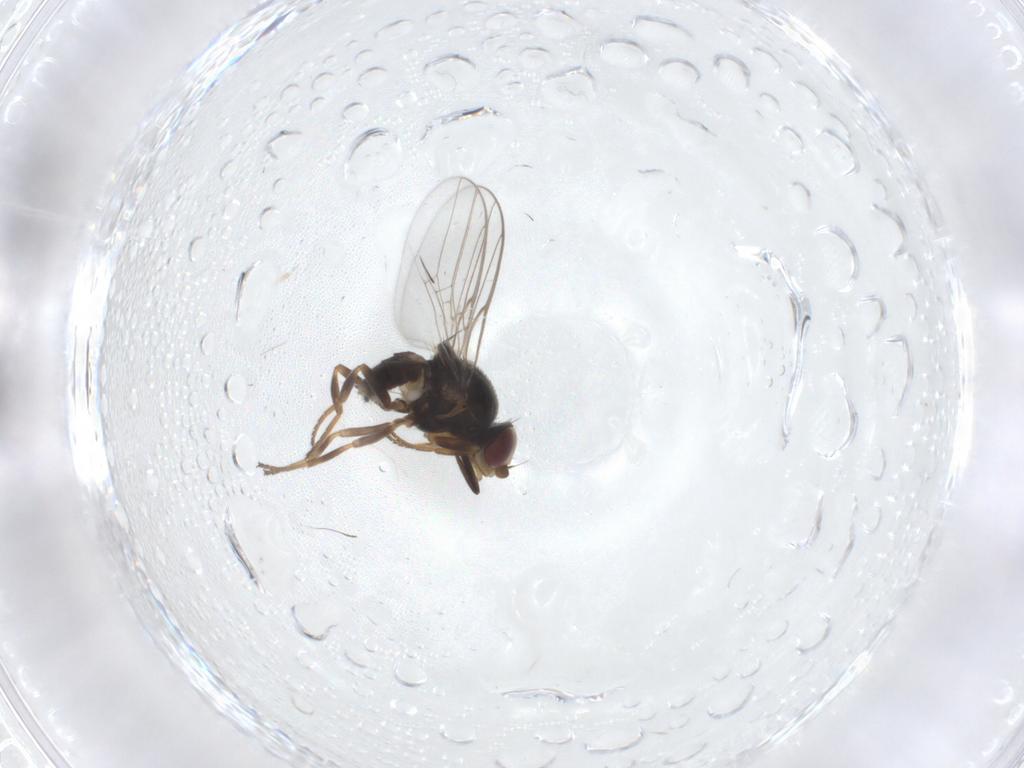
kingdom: Animalia
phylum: Arthropoda
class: Insecta
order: Diptera
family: Chloropidae
